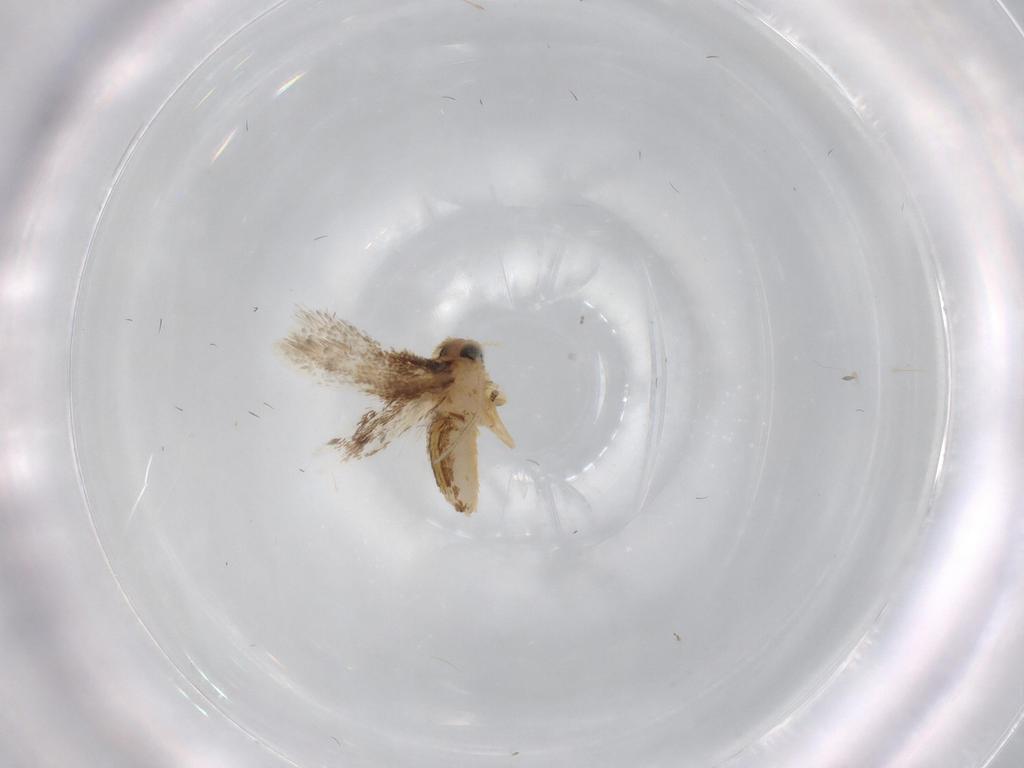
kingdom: Animalia
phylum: Arthropoda
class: Insecta
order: Lepidoptera
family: Nepticulidae
